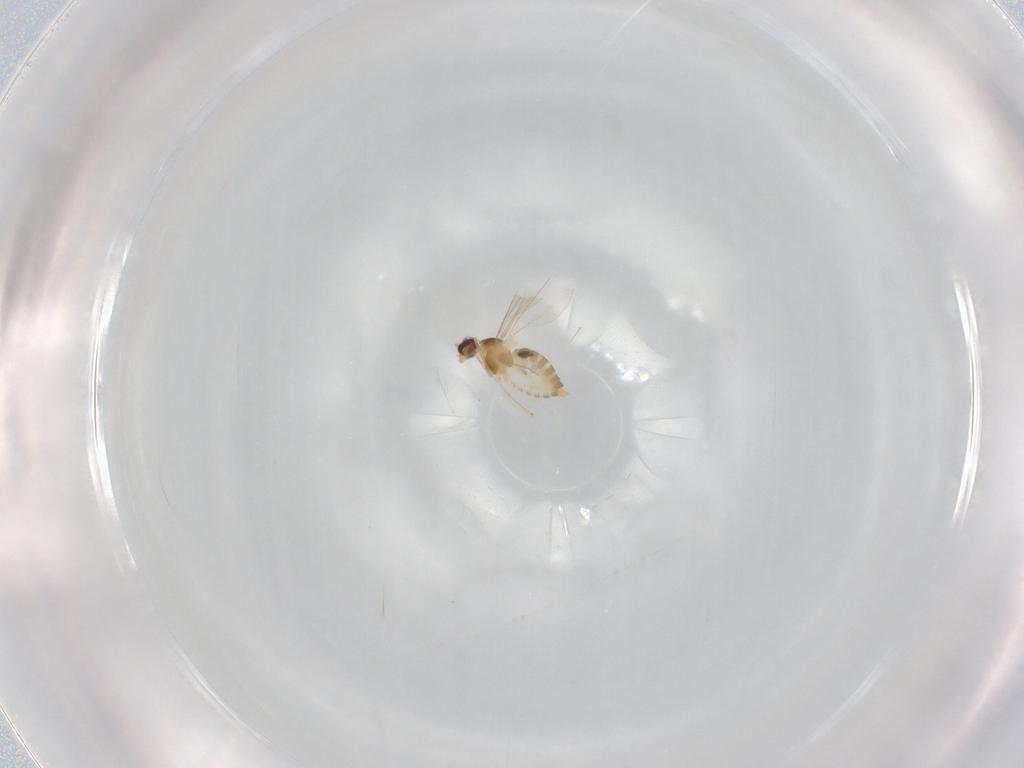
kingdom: Animalia
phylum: Arthropoda
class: Insecta
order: Diptera
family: Cecidomyiidae
